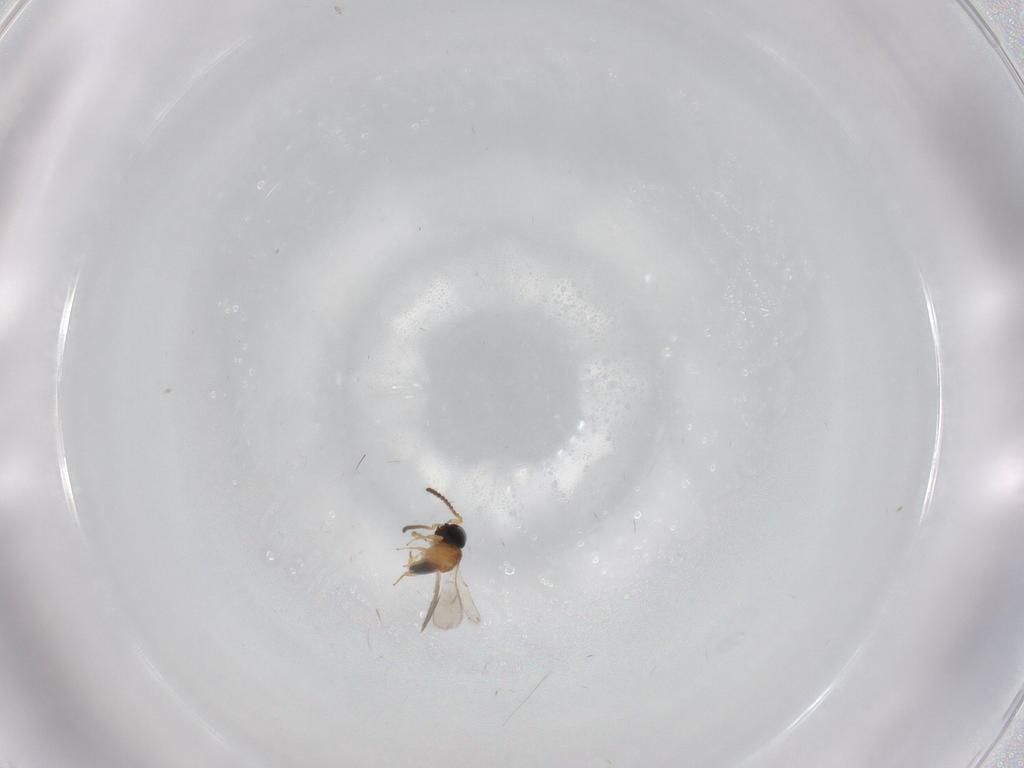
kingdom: Animalia
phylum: Arthropoda
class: Insecta
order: Hymenoptera
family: Scelionidae
